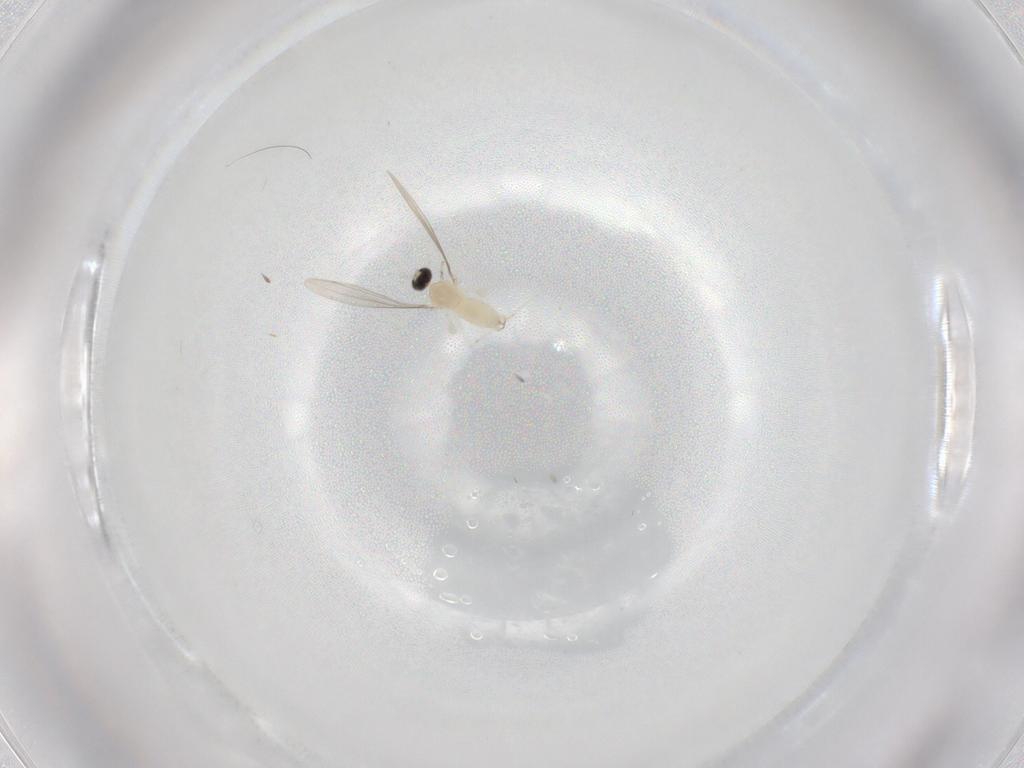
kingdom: Animalia
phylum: Arthropoda
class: Insecta
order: Diptera
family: Cecidomyiidae
